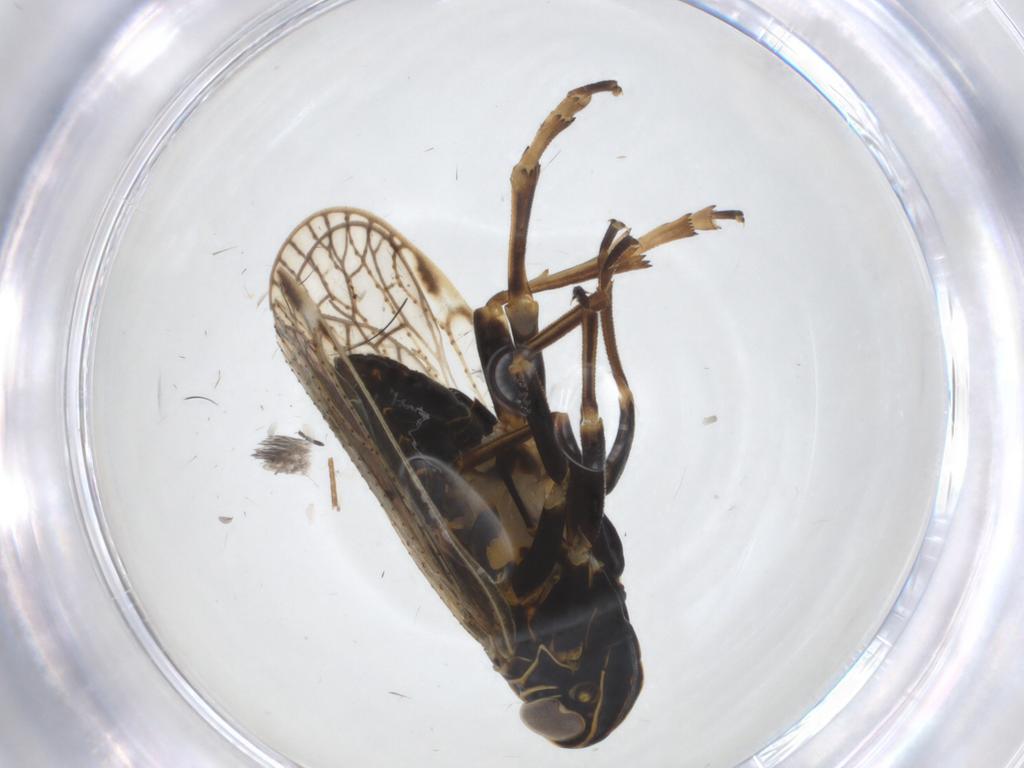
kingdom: Animalia
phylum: Arthropoda
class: Insecta
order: Hemiptera
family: Cixiidae
